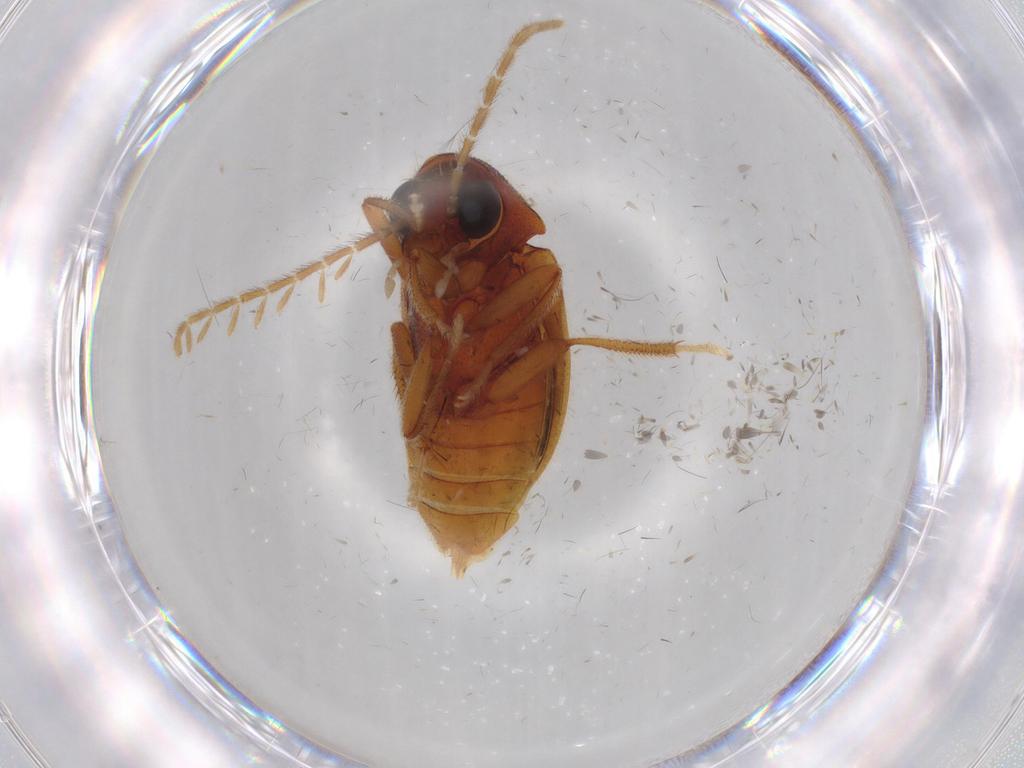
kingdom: Animalia
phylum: Arthropoda
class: Insecta
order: Coleoptera
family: Ptilodactylidae
